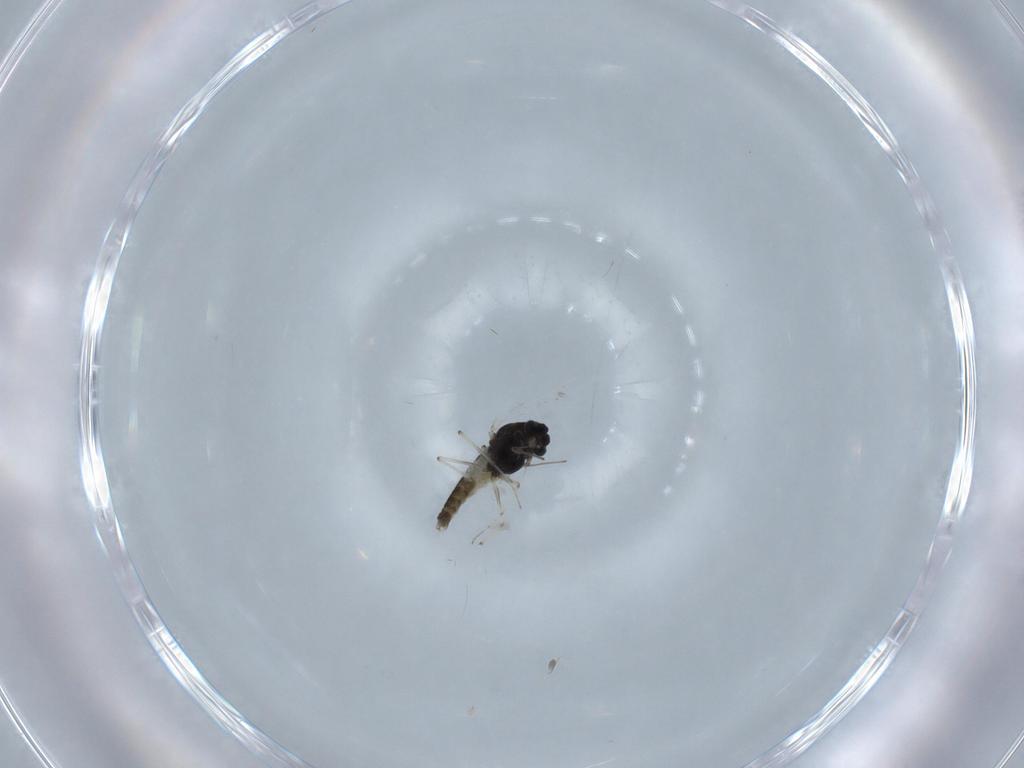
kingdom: Animalia
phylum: Arthropoda
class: Insecta
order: Diptera
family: Chironomidae
